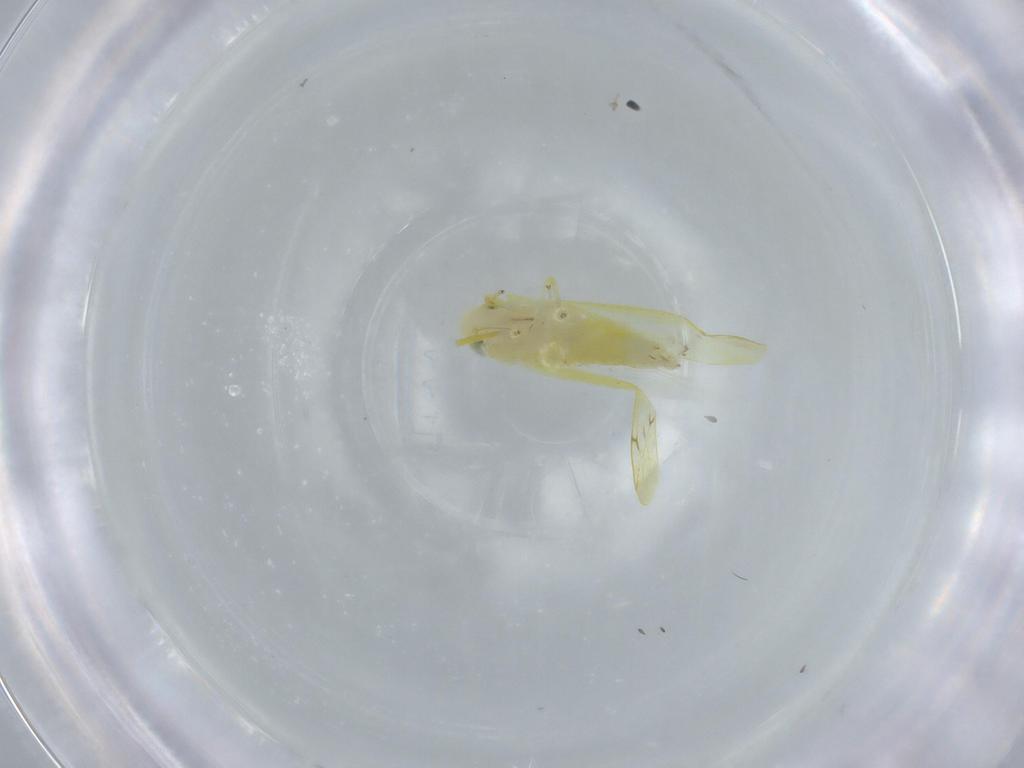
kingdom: Animalia
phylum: Arthropoda
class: Insecta
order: Hemiptera
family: Cicadellidae
